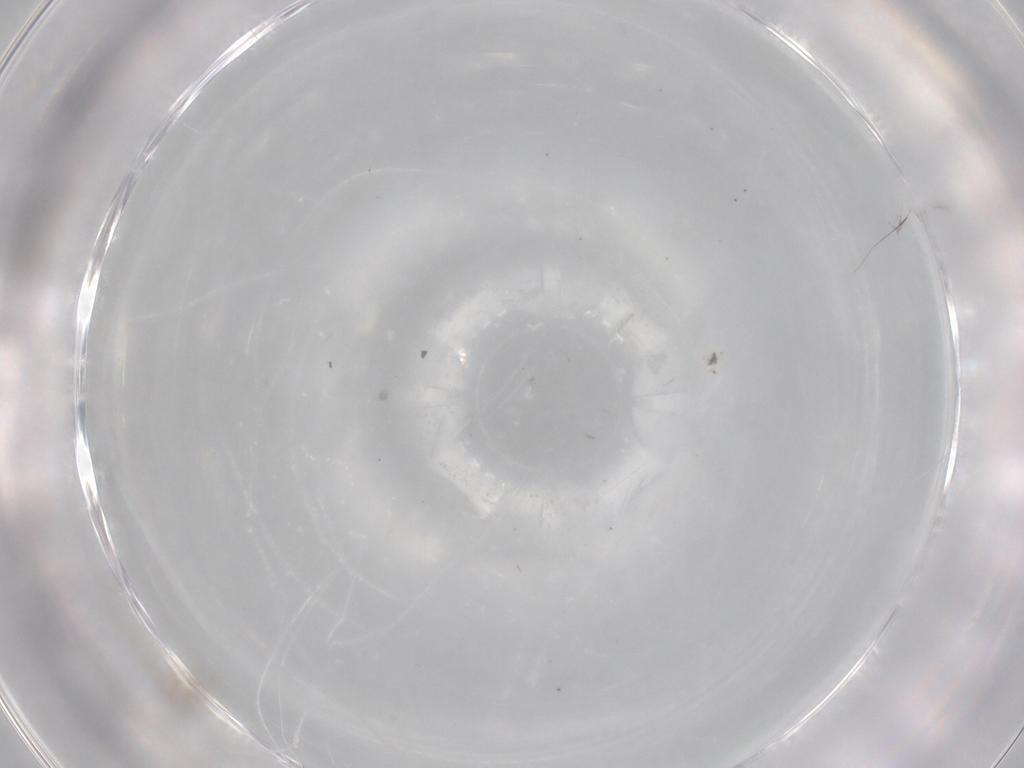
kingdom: Animalia
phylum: Arthropoda
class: Insecta
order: Diptera
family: Cecidomyiidae
